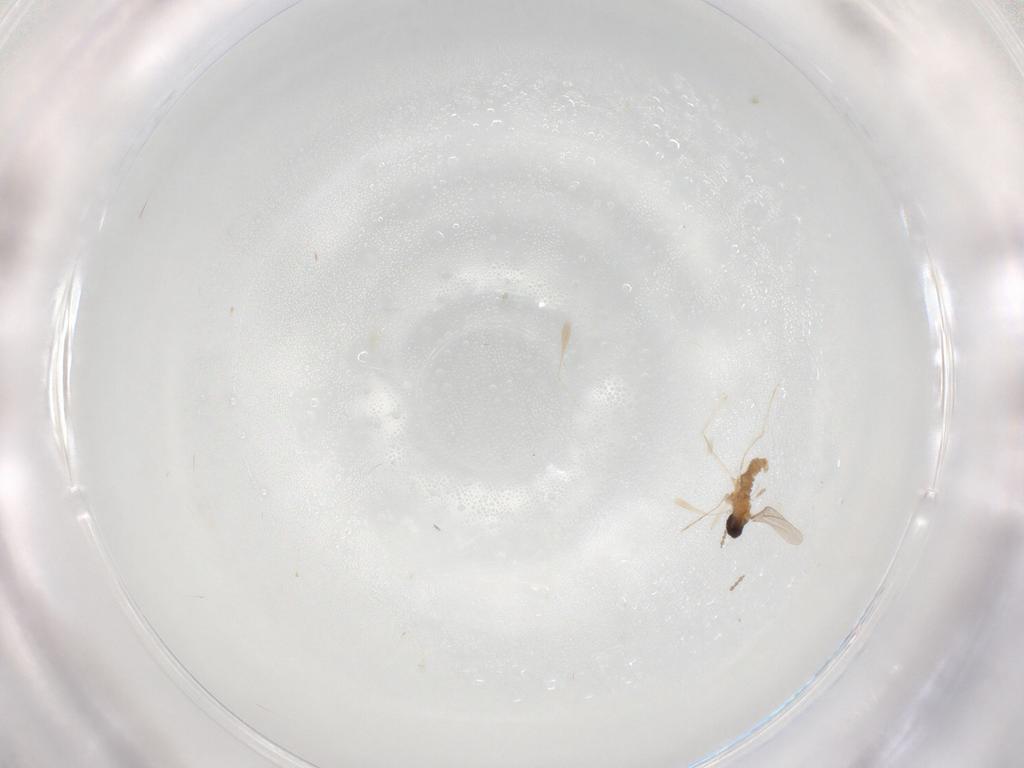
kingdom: Animalia
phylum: Arthropoda
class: Insecta
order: Diptera
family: Cecidomyiidae
